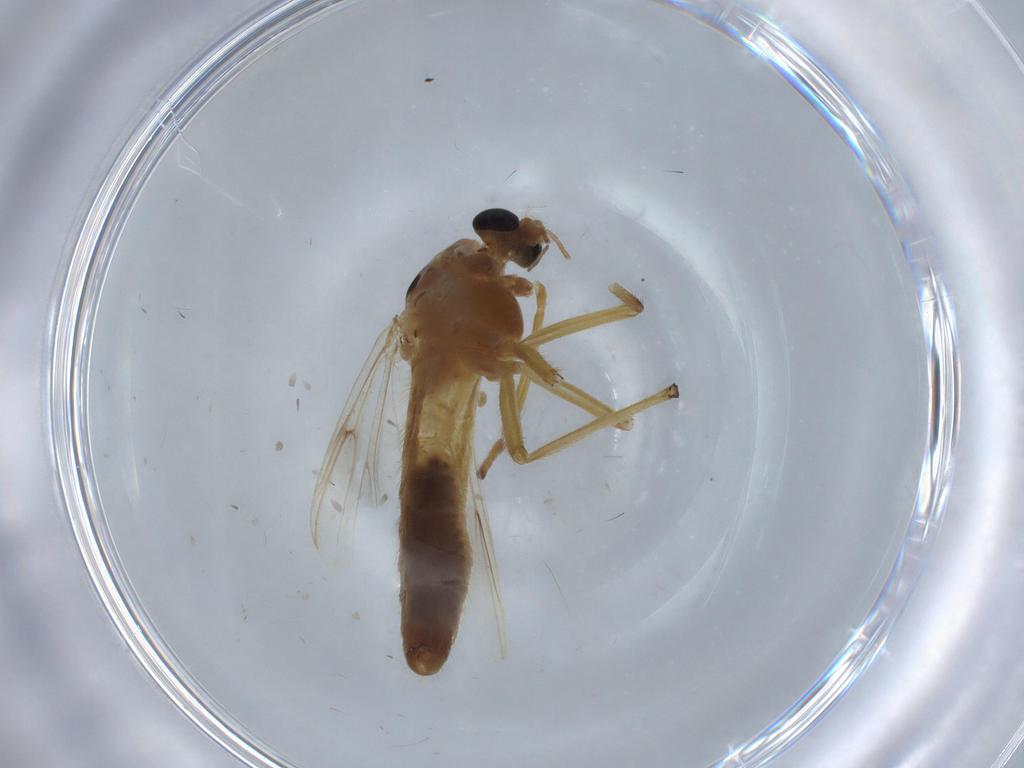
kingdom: Animalia
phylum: Arthropoda
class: Insecta
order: Diptera
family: Chironomidae
